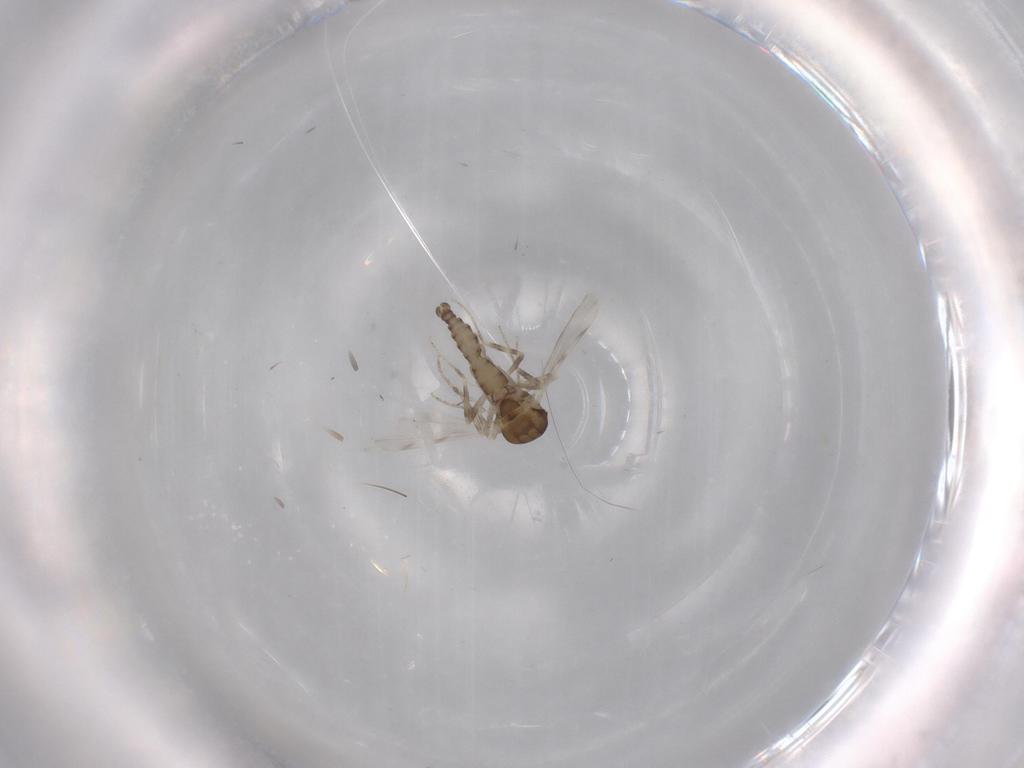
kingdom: Animalia
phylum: Arthropoda
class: Insecta
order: Diptera
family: Ceratopogonidae
